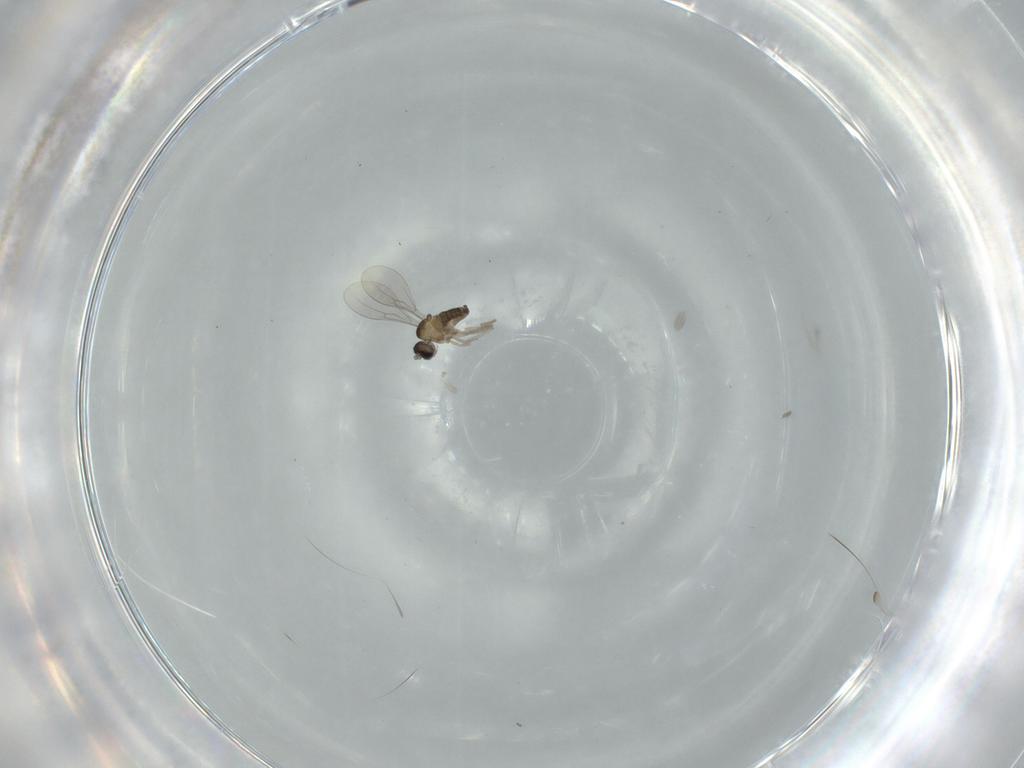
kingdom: Animalia
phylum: Arthropoda
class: Insecta
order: Diptera
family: Cecidomyiidae
